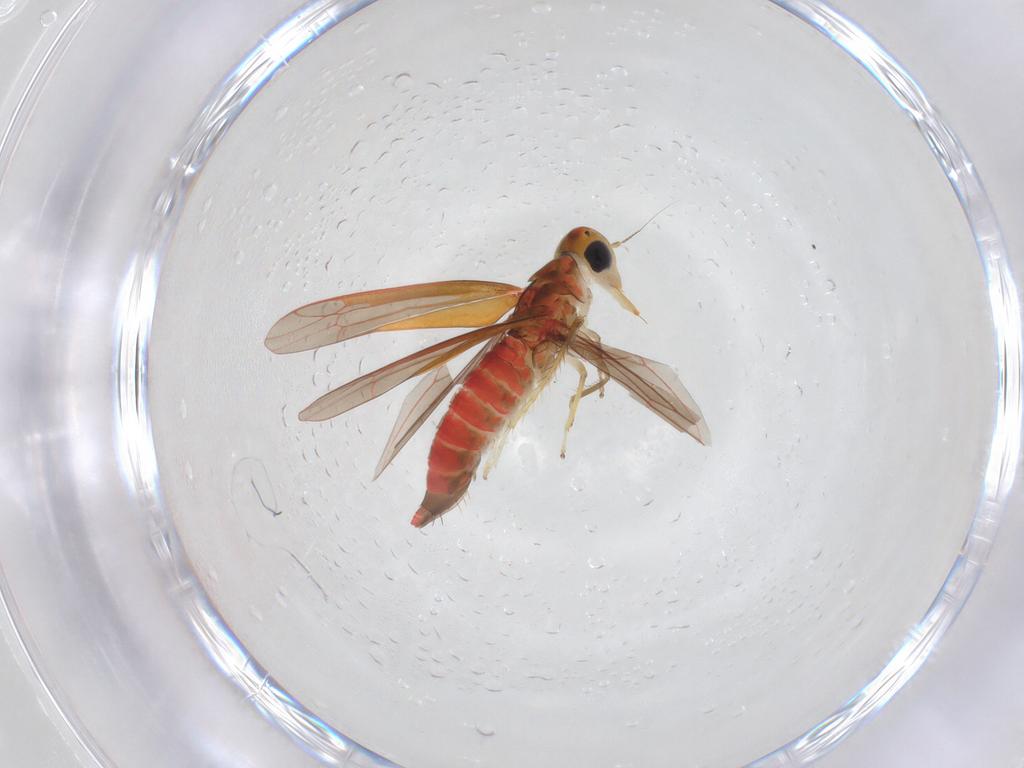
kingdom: Animalia
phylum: Arthropoda
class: Insecta
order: Hemiptera
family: Cicadellidae
